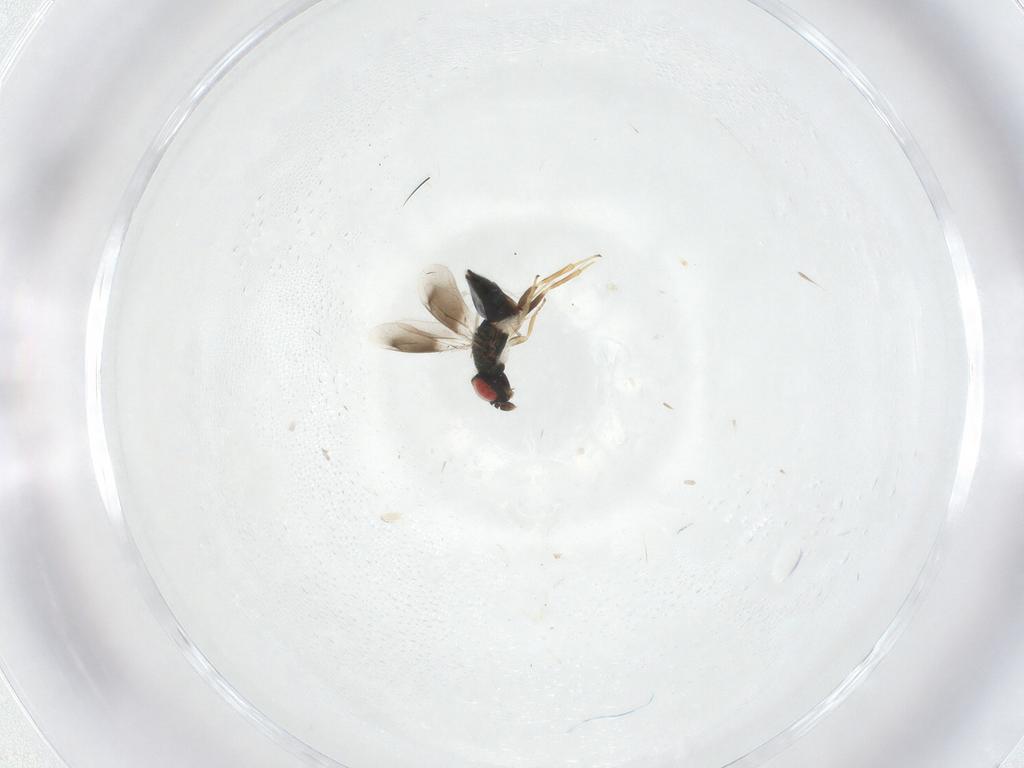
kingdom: Animalia
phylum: Arthropoda
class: Insecta
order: Hymenoptera
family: Eulophidae
